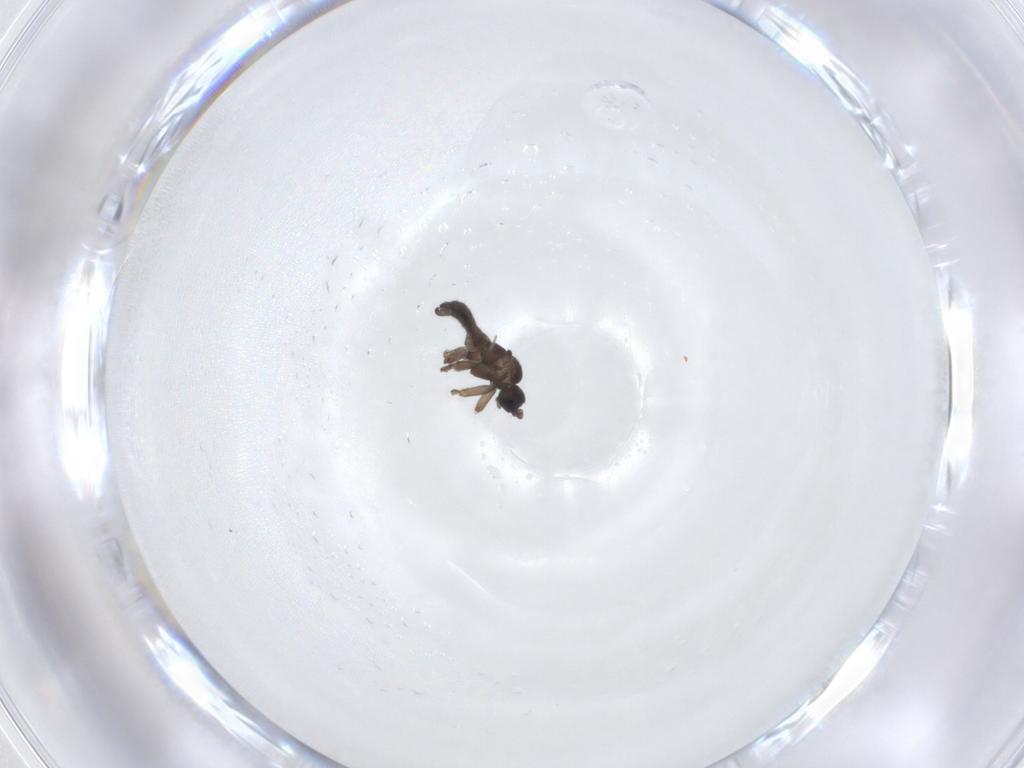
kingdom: Animalia
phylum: Arthropoda
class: Insecta
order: Diptera
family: Sciaridae
